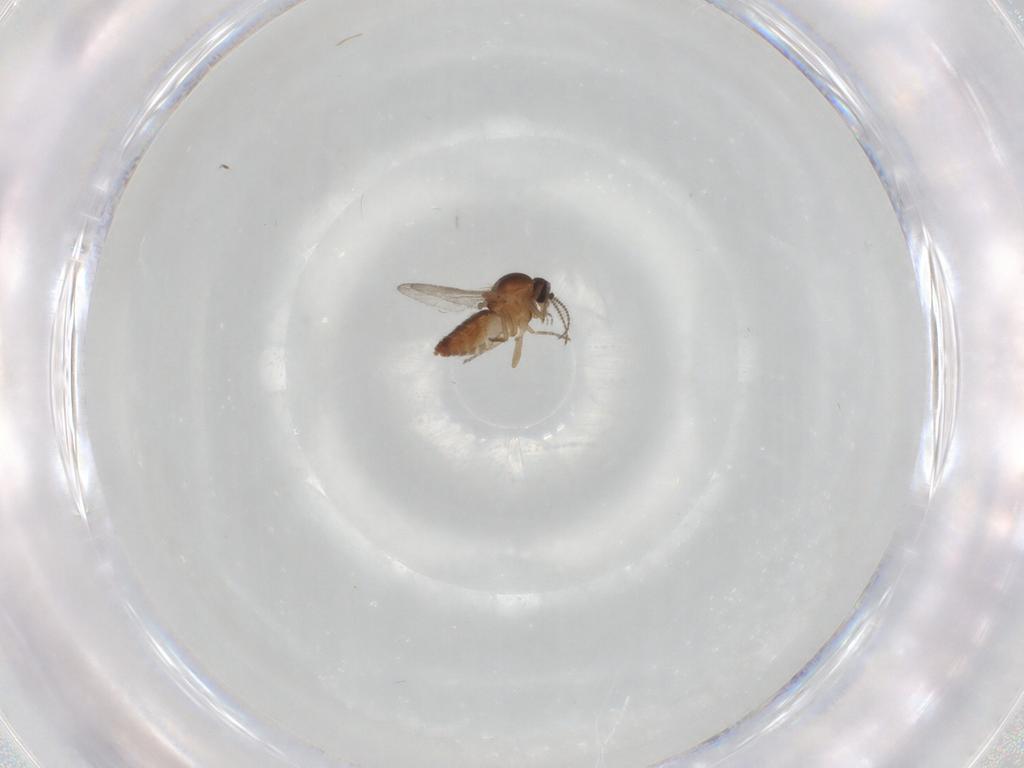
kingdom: Animalia
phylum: Arthropoda
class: Insecta
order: Diptera
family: Ceratopogonidae
